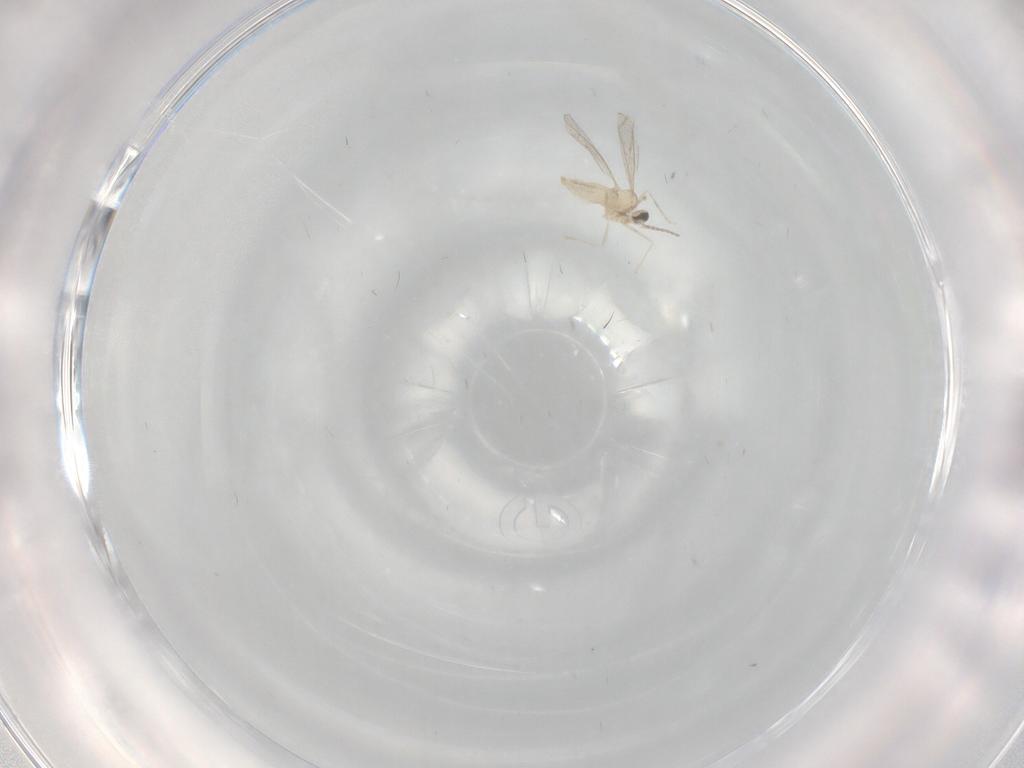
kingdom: Animalia
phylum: Arthropoda
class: Insecta
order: Diptera
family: Cecidomyiidae
